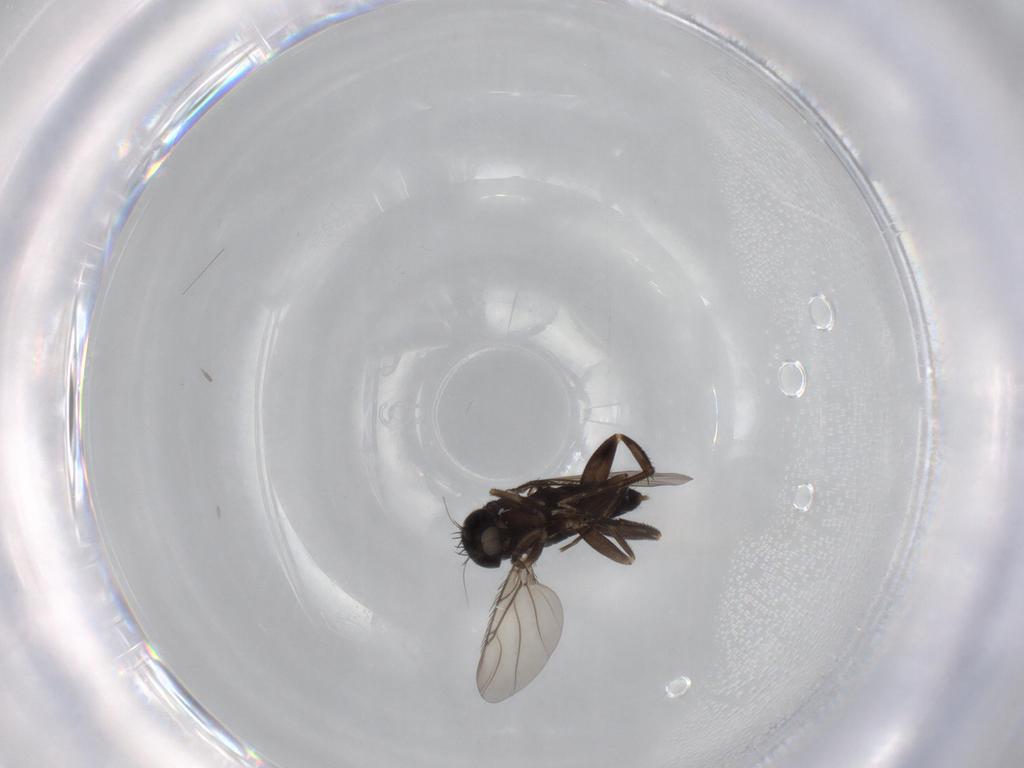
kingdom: Animalia
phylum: Arthropoda
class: Insecta
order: Diptera
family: Phoridae
